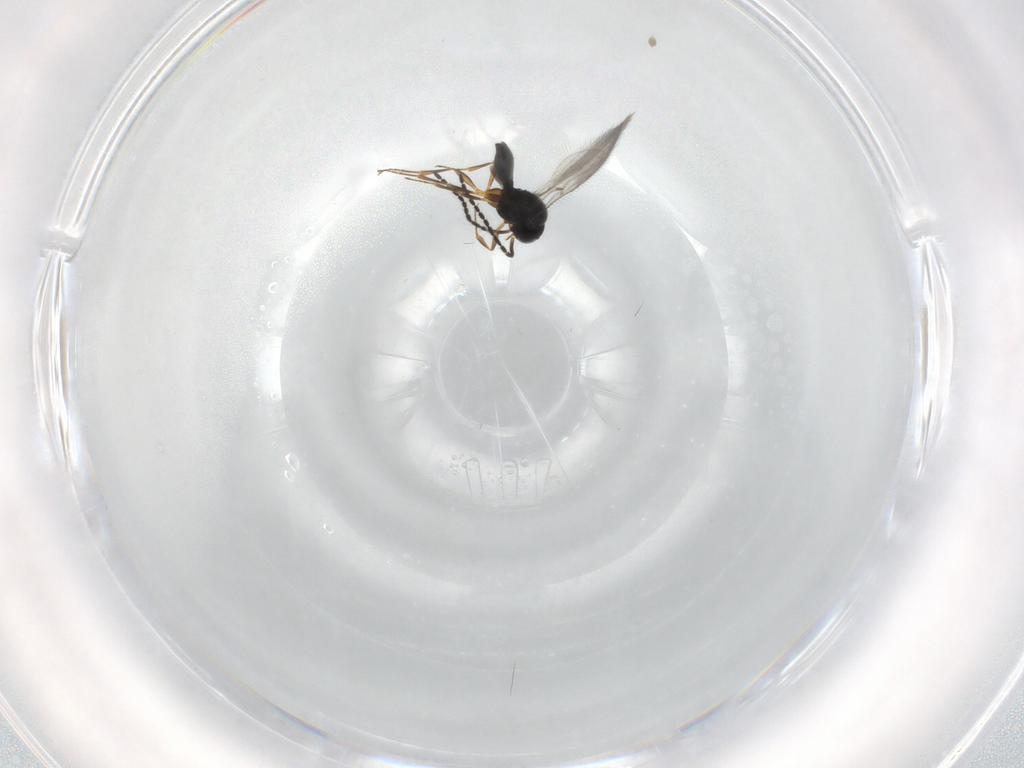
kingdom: Animalia
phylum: Arthropoda
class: Insecta
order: Hymenoptera
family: Scelionidae
